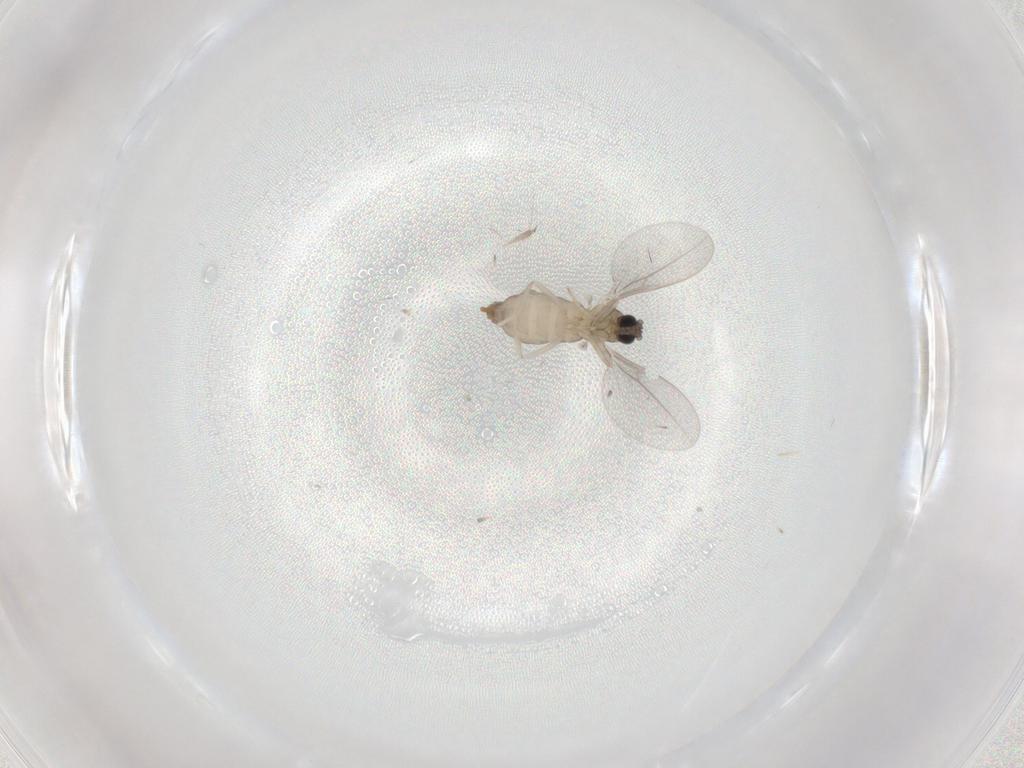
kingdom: Animalia
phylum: Arthropoda
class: Insecta
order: Diptera
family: Cecidomyiidae
